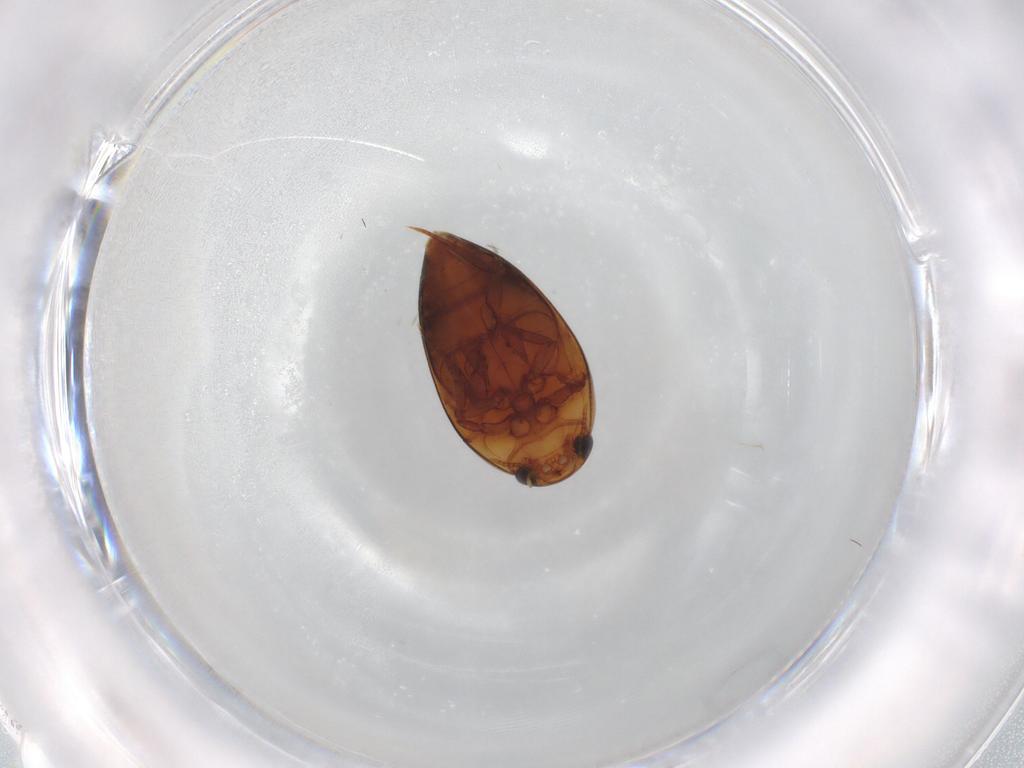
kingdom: Animalia
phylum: Arthropoda
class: Insecta
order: Coleoptera
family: Noteridae
